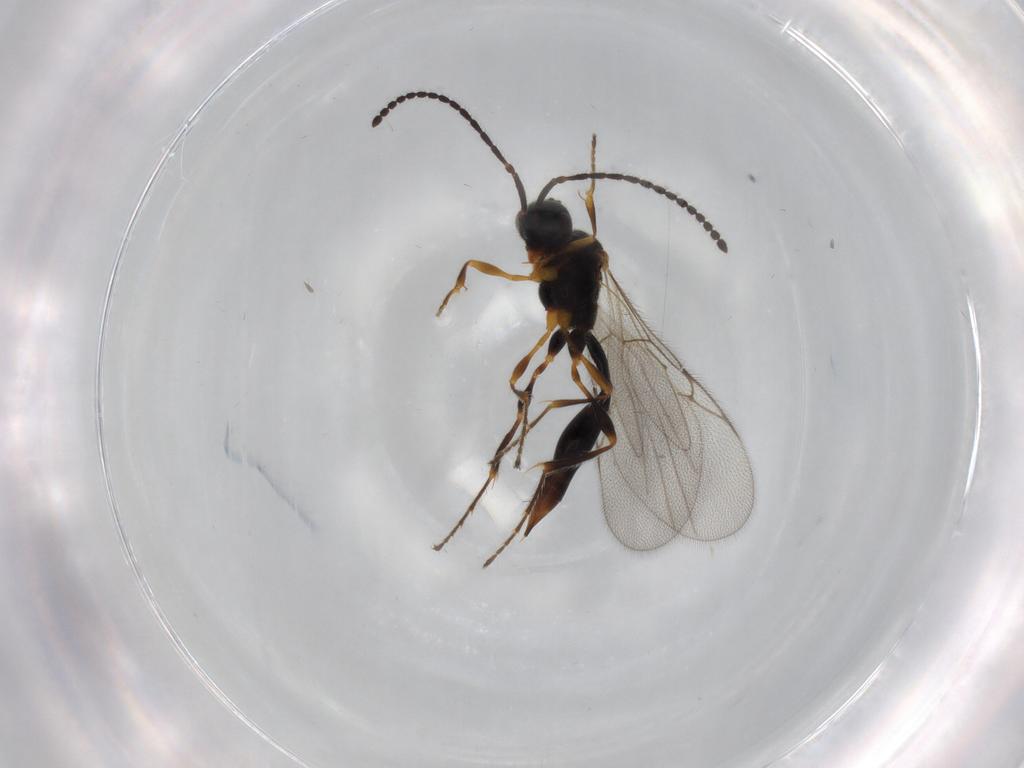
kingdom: Animalia
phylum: Arthropoda
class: Insecta
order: Hymenoptera
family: Diapriidae
